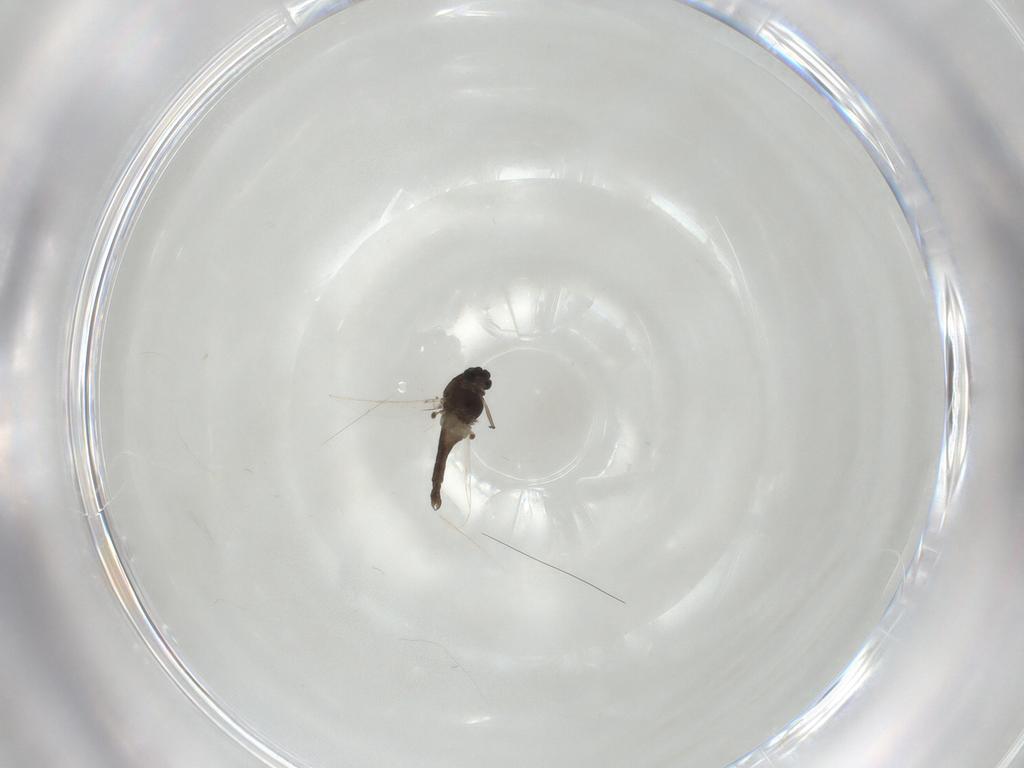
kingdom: Animalia
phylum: Arthropoda
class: Insecta
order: Diptera
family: Chironomidae
